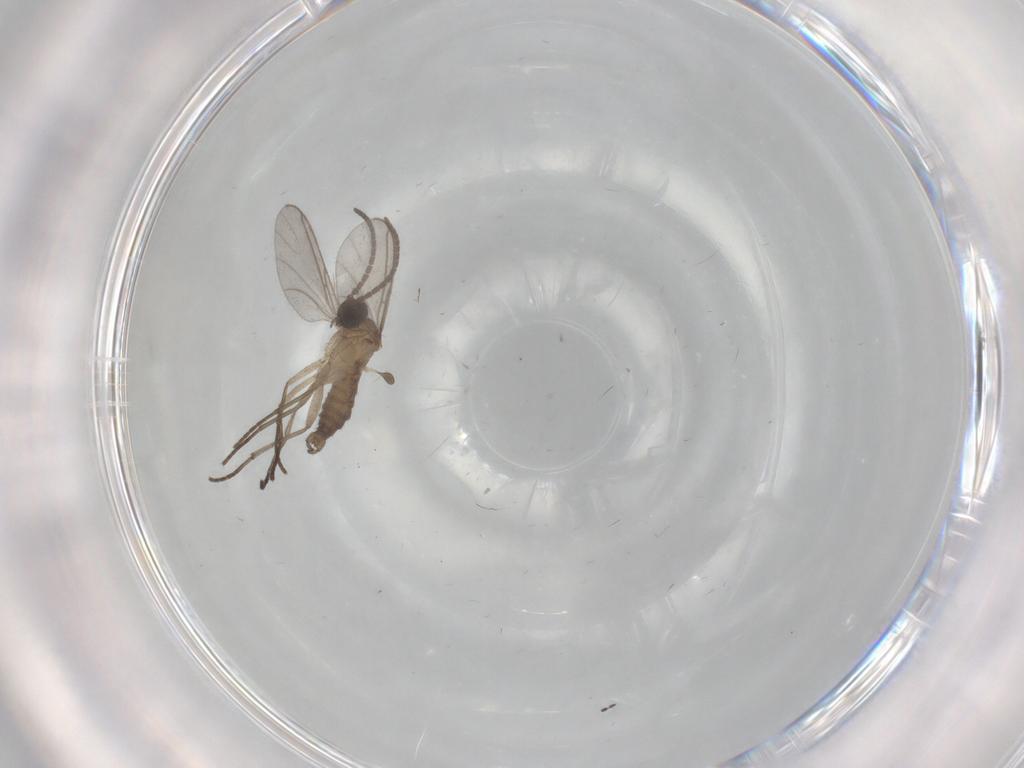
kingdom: Animalia
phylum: Arthropoda
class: Insecta
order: Diptera
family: Sciaridae
